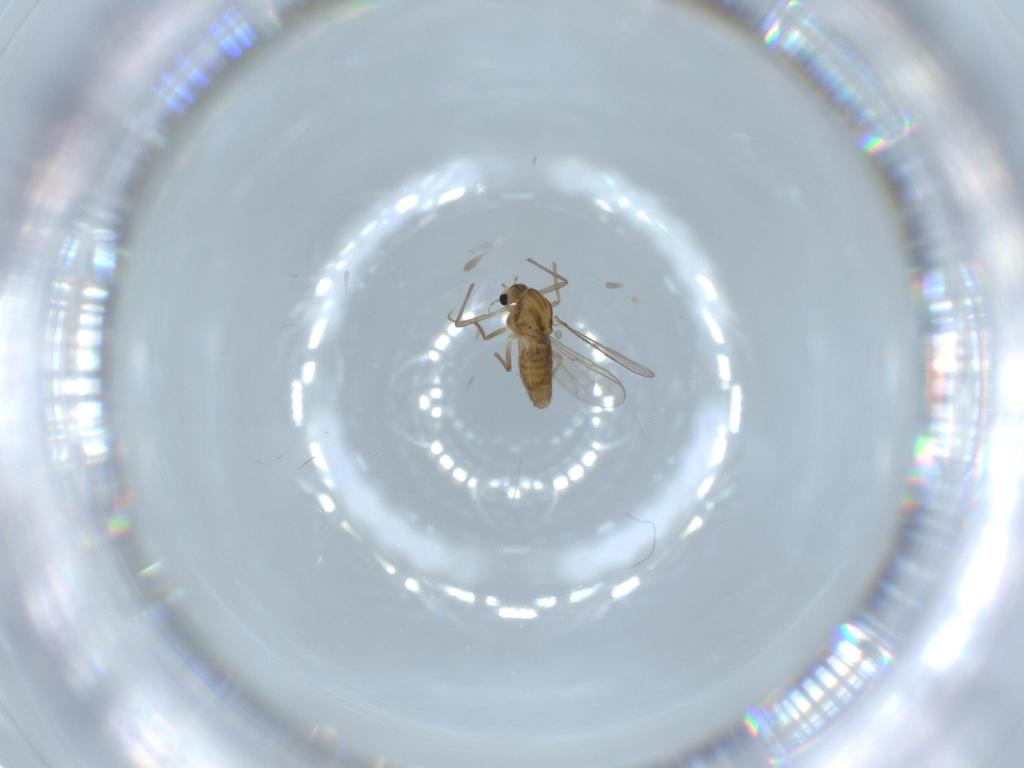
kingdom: Animalia
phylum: Arthropoda
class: Insecta
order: Diptera
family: Chironomidae
